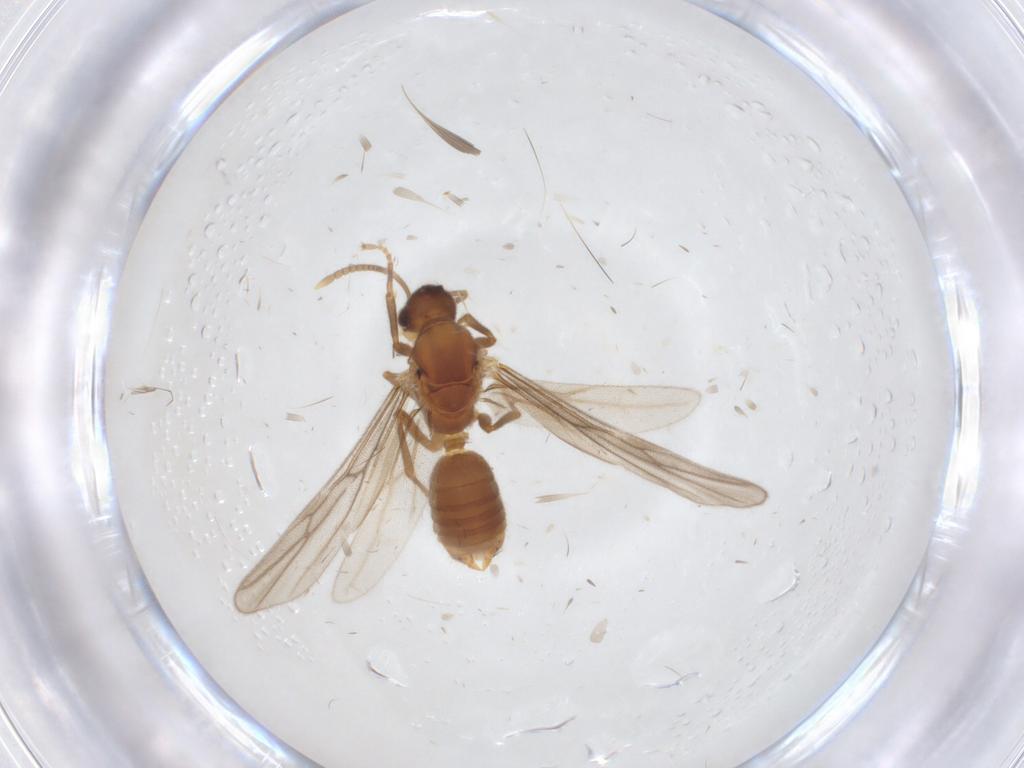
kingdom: Animalia
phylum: Arthropoda
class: Insecta
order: Hymenoptera
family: Formicidae
